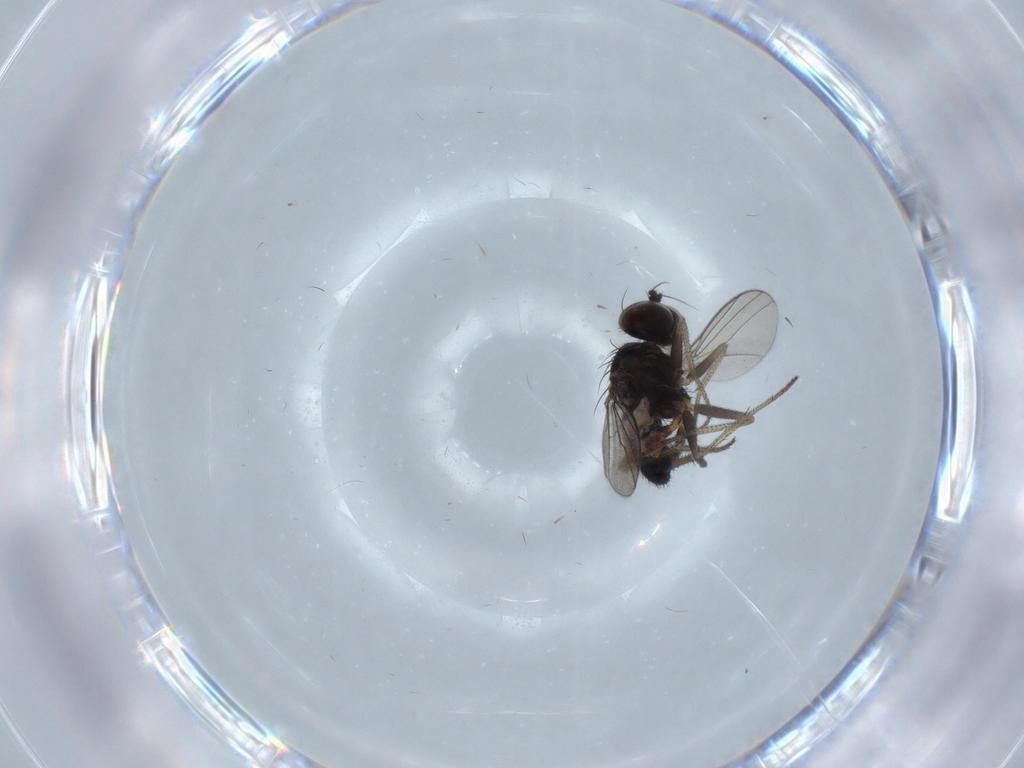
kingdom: Animalia
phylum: Arthropoda
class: Insecta
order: Diptera
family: Dolichopodidae
